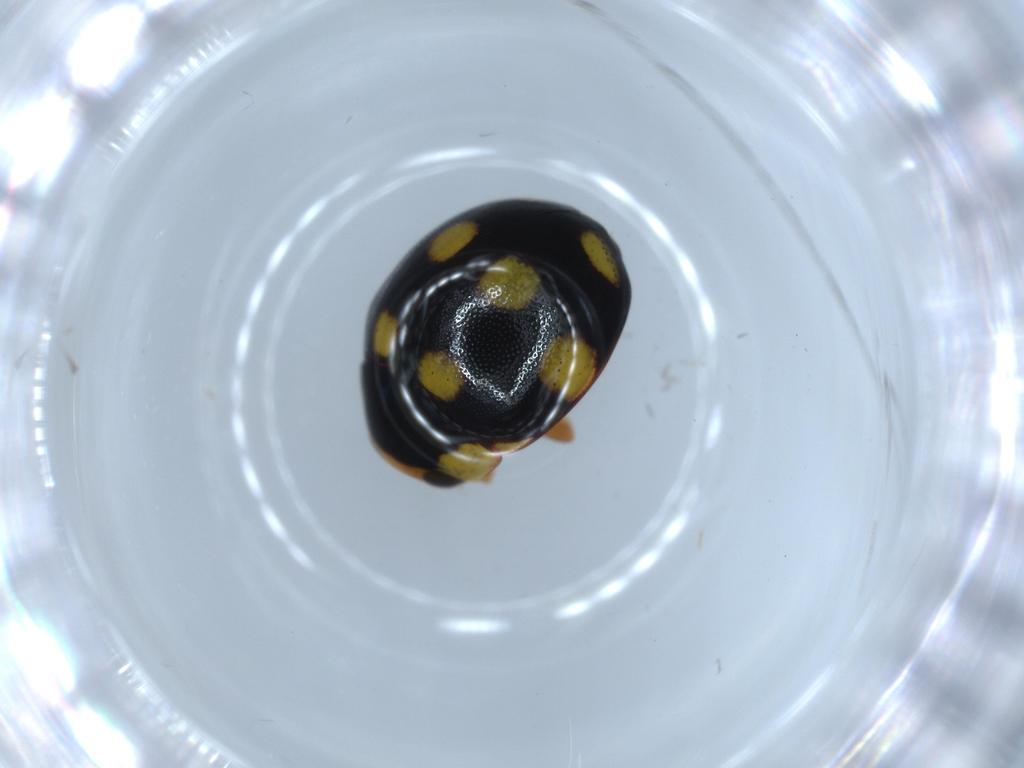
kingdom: Animalia
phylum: Arthropoda
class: Insecta
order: Coleoptera
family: Coccinellidae
